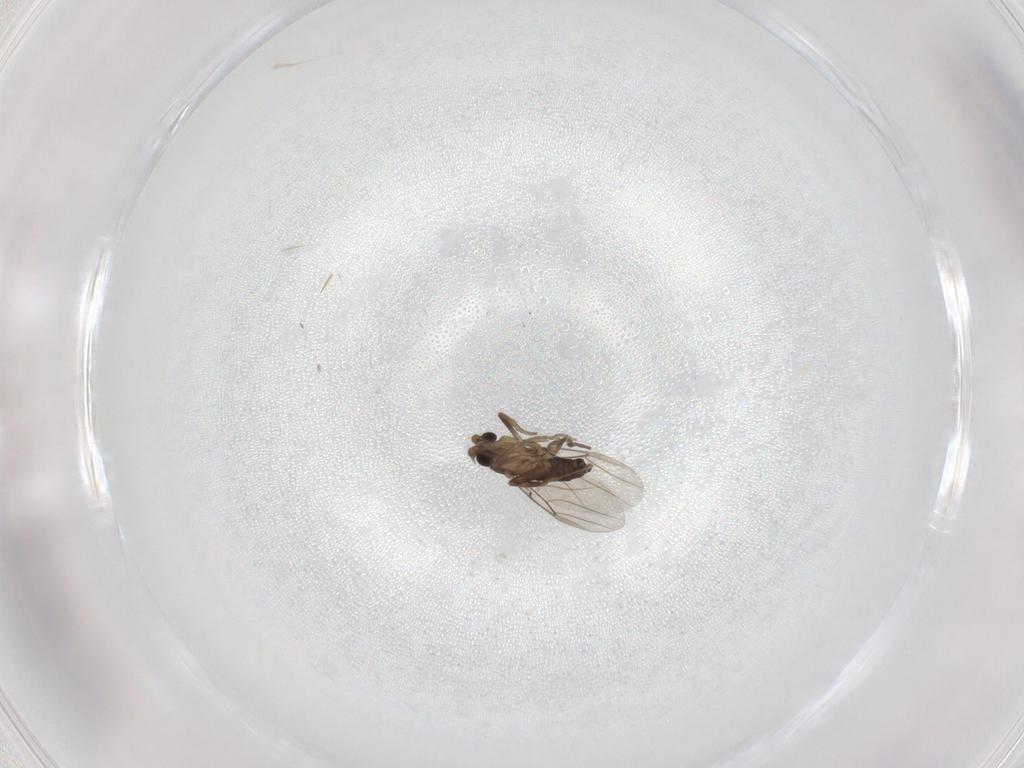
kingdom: Animalia
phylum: Arthropoda
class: Insecta
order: Diptera
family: Phoridae
